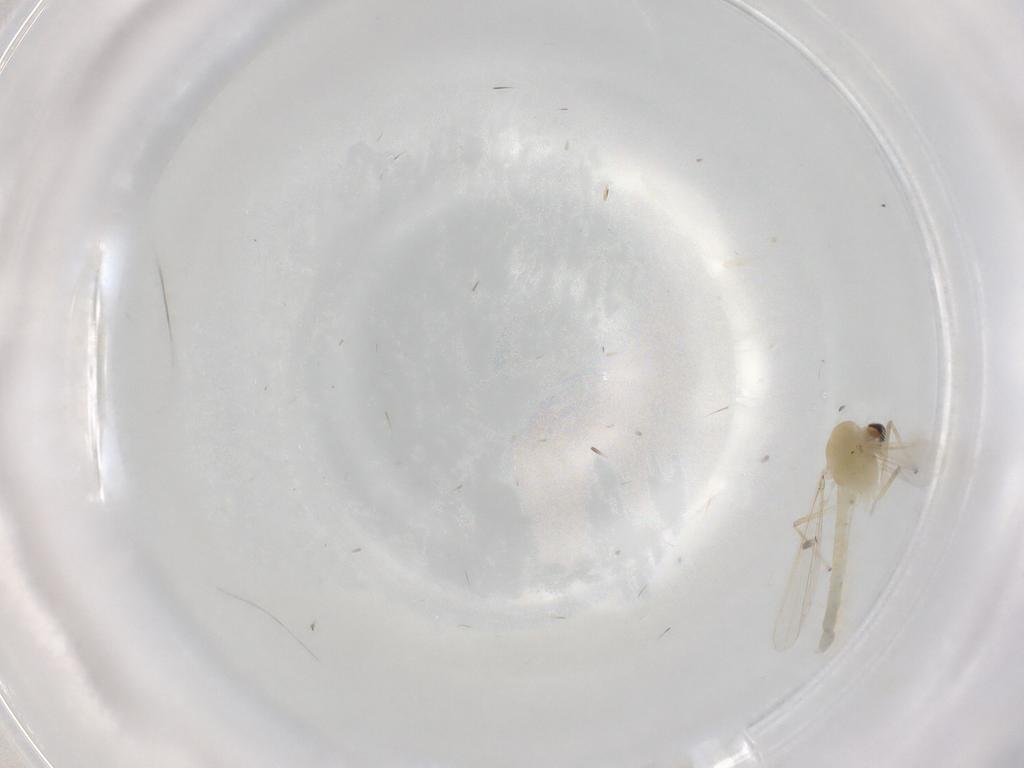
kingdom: Animalia
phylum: Arthropoda
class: Insecta
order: Diptera
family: Chironomidae
